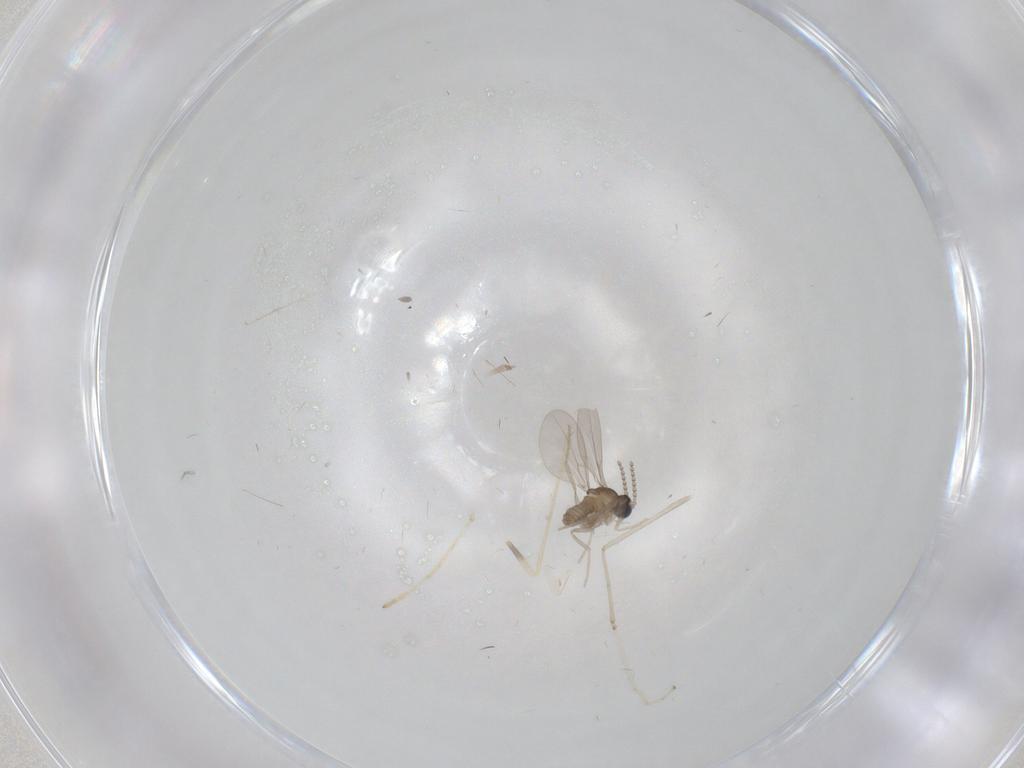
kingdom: Animalia
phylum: Arthropoda
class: Insecta
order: Diptera
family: Cecidomyiidae
